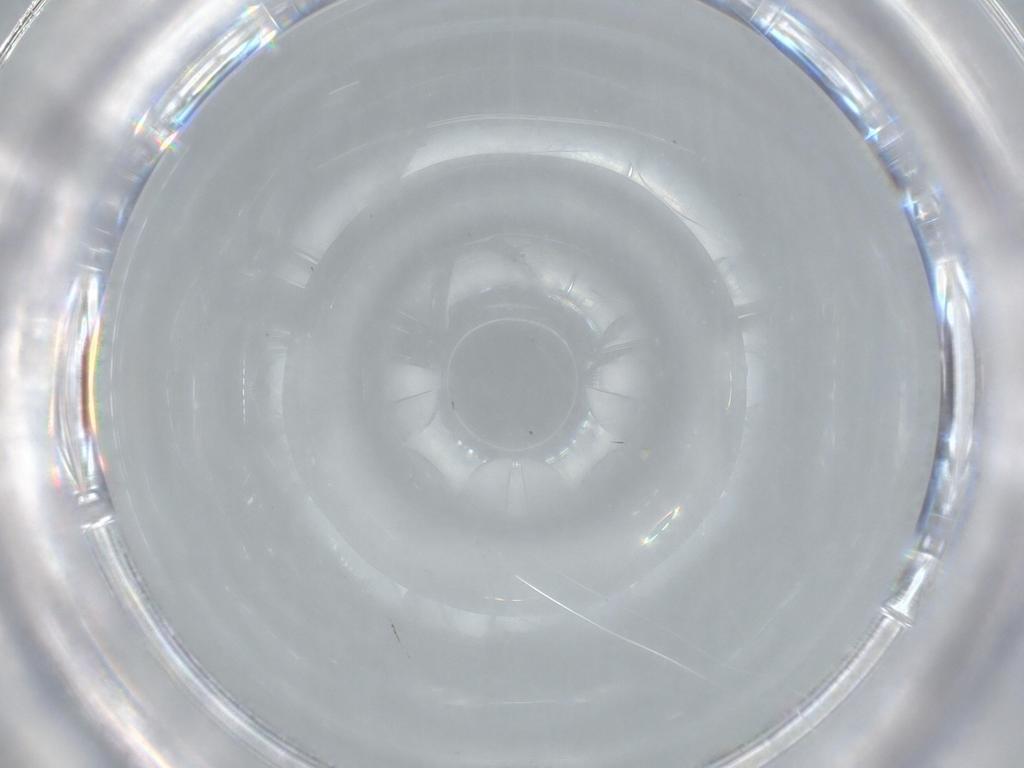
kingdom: Animalia
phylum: Arthropoda
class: Insecta
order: Diptera
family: Cecidomyiidae
